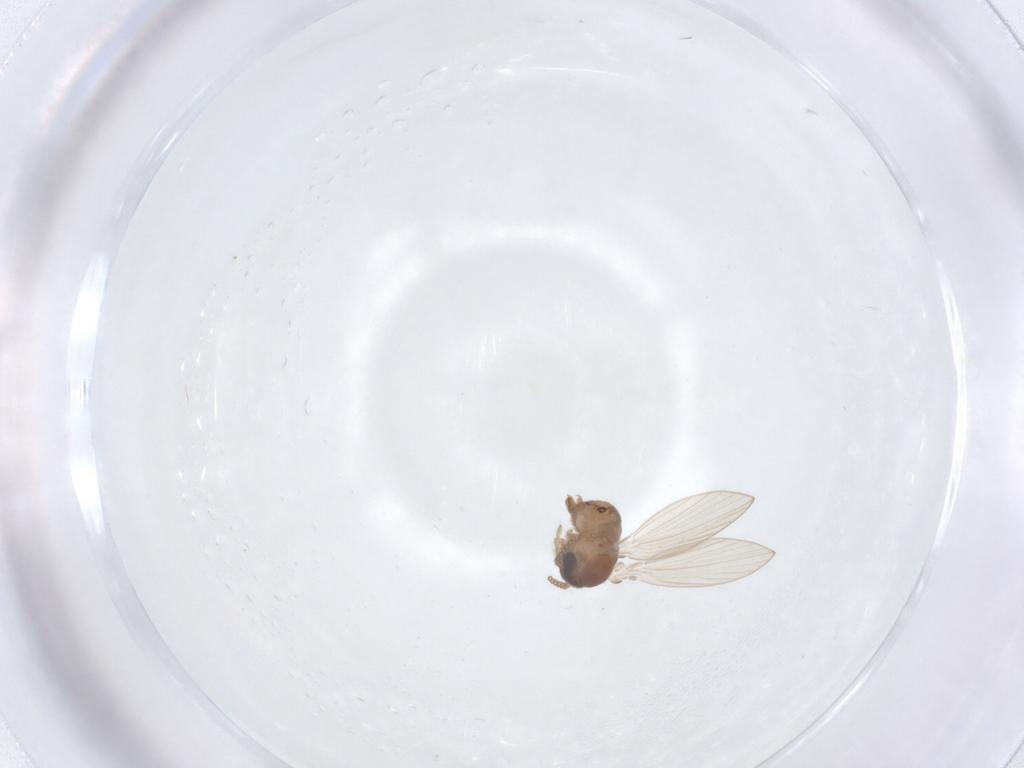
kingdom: Animalia
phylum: Arthropoda
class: Insecta
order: Diptera
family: Psychodidae
